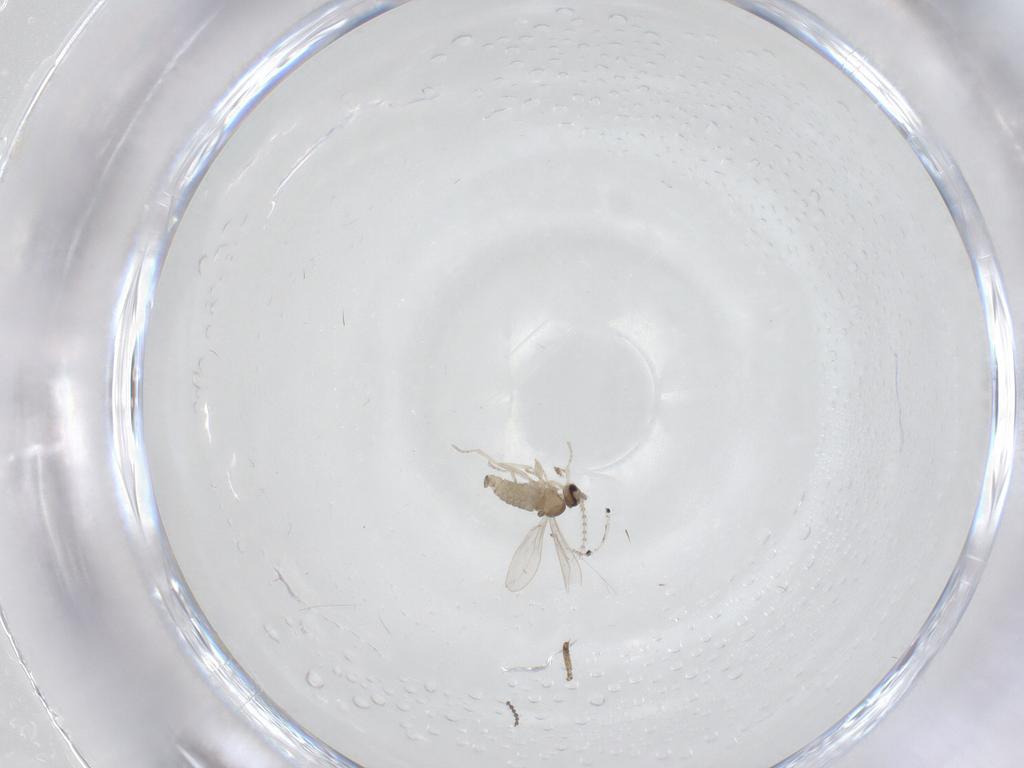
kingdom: Animalia
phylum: Arthropoda
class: Insecta
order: Diptera
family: Cecidomyiidae
